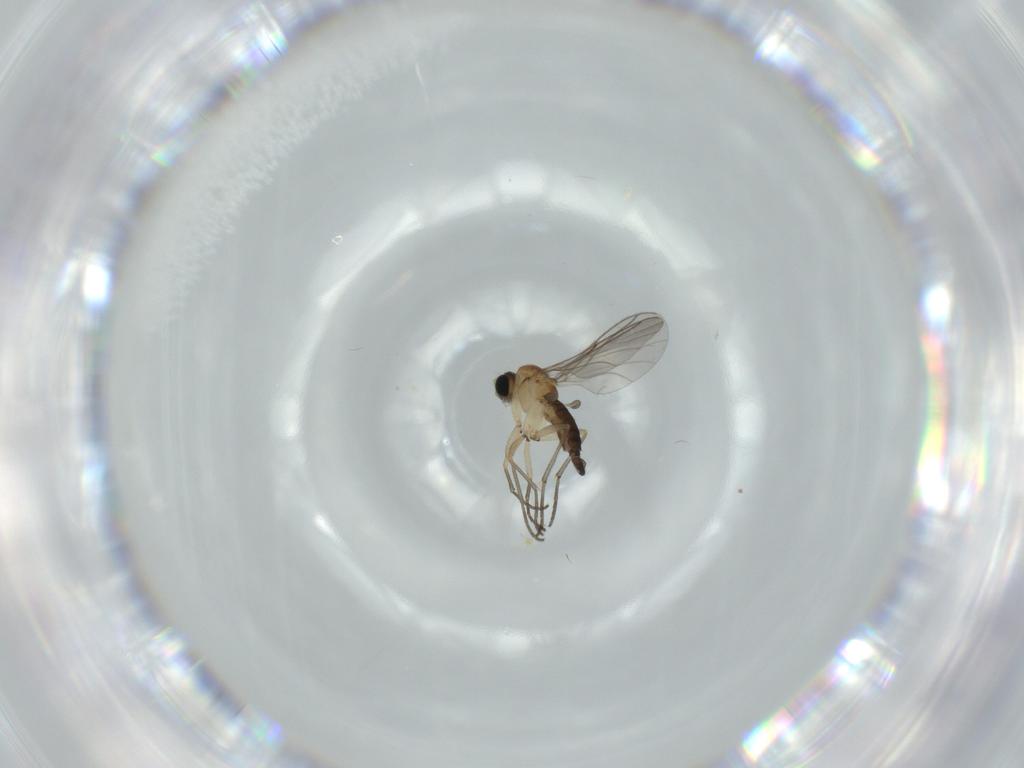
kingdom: Animalia
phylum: Arthropoda
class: Insecta
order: Diptera
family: Sciaridae
